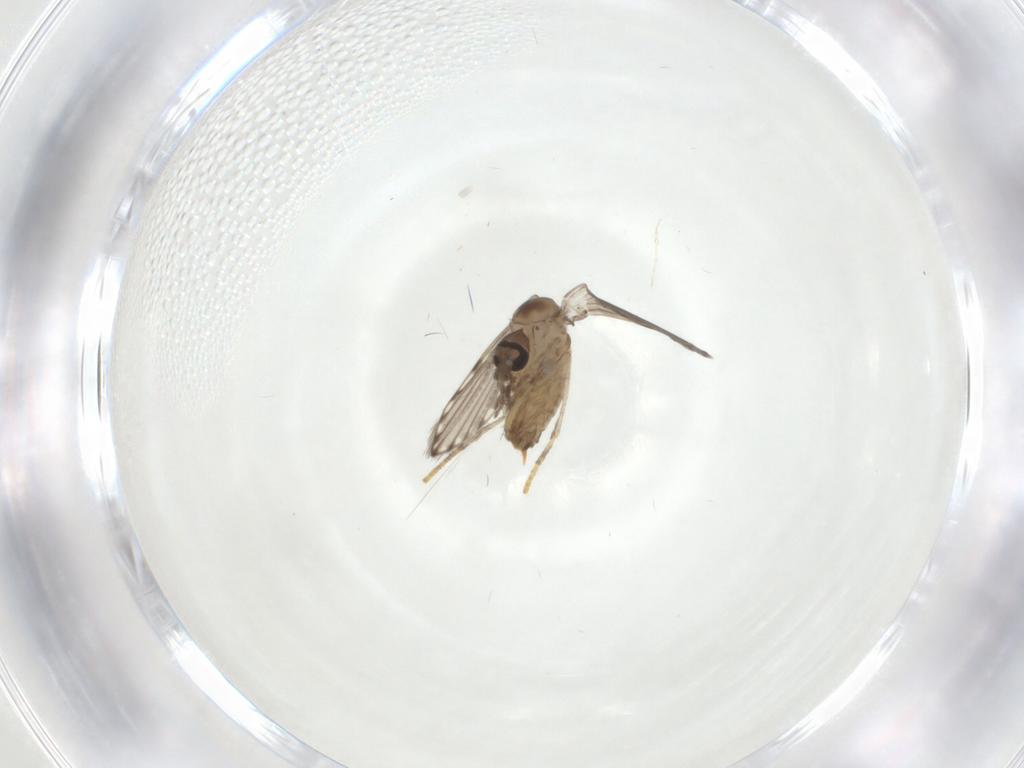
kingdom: Animalia
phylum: Arthropoda
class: Insecta
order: Diptera
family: Psychodidae
